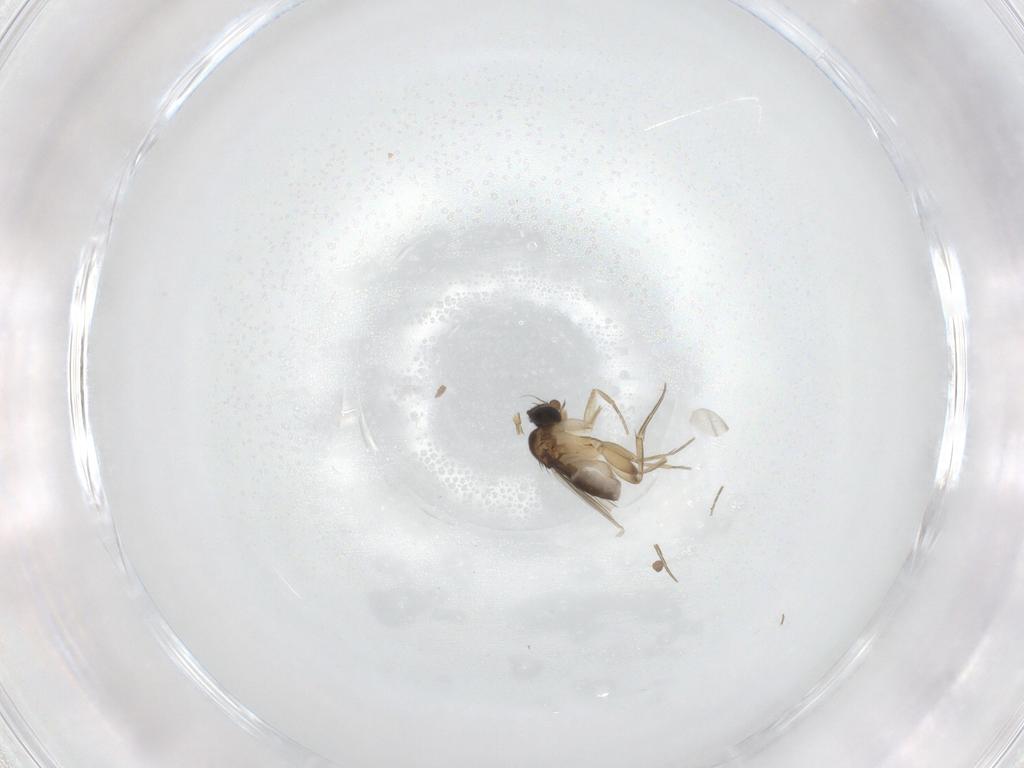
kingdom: Animalia
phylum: Arthropoda
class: Insecta
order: Diptera
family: Phoridae
